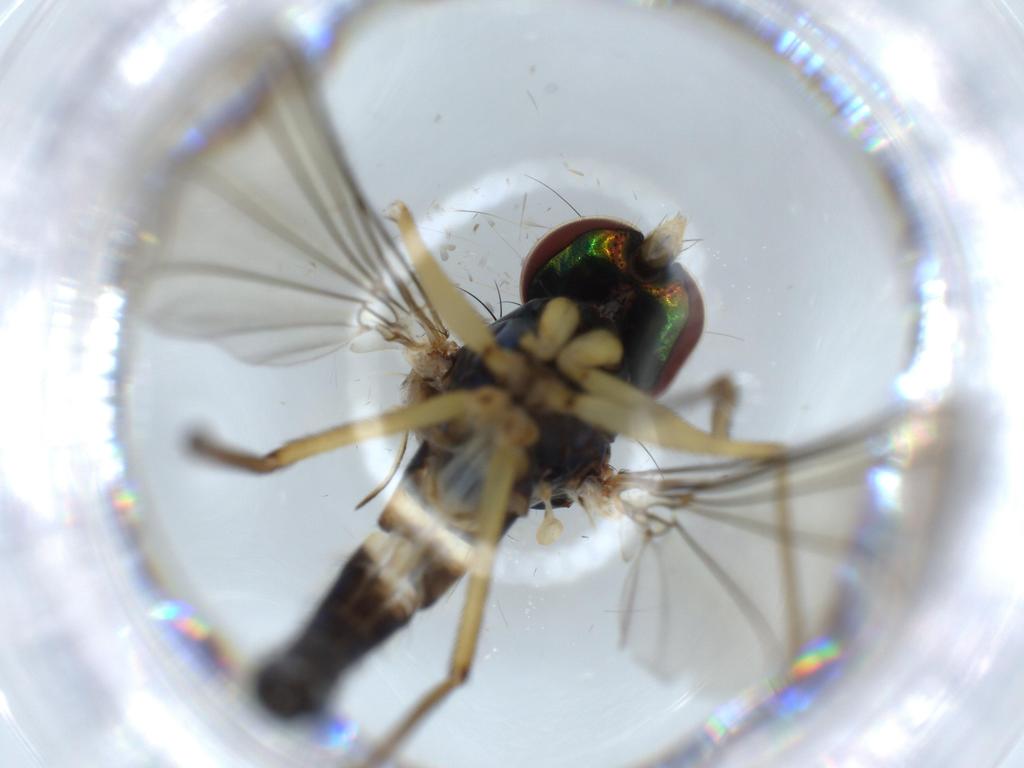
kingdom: Animalia
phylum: Arthropoda
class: Insecta
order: Diptera
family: Dolichopodidae
